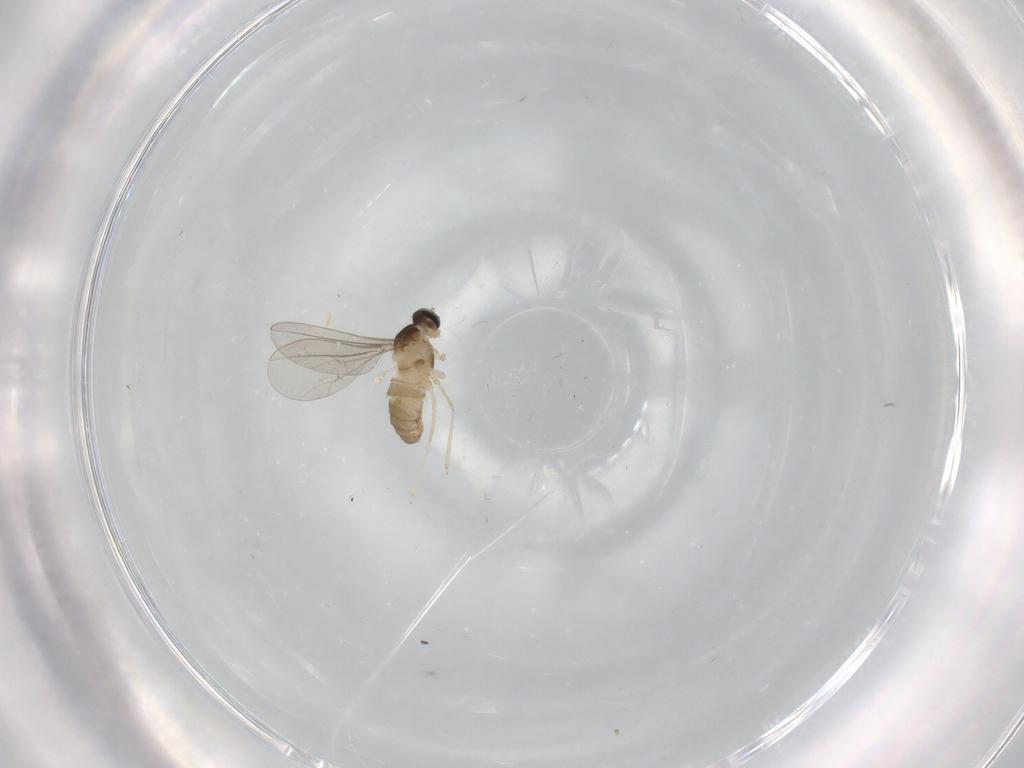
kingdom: Animalia
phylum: Arthropoda
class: Insecta
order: Diptera
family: Cecidomyiidae
